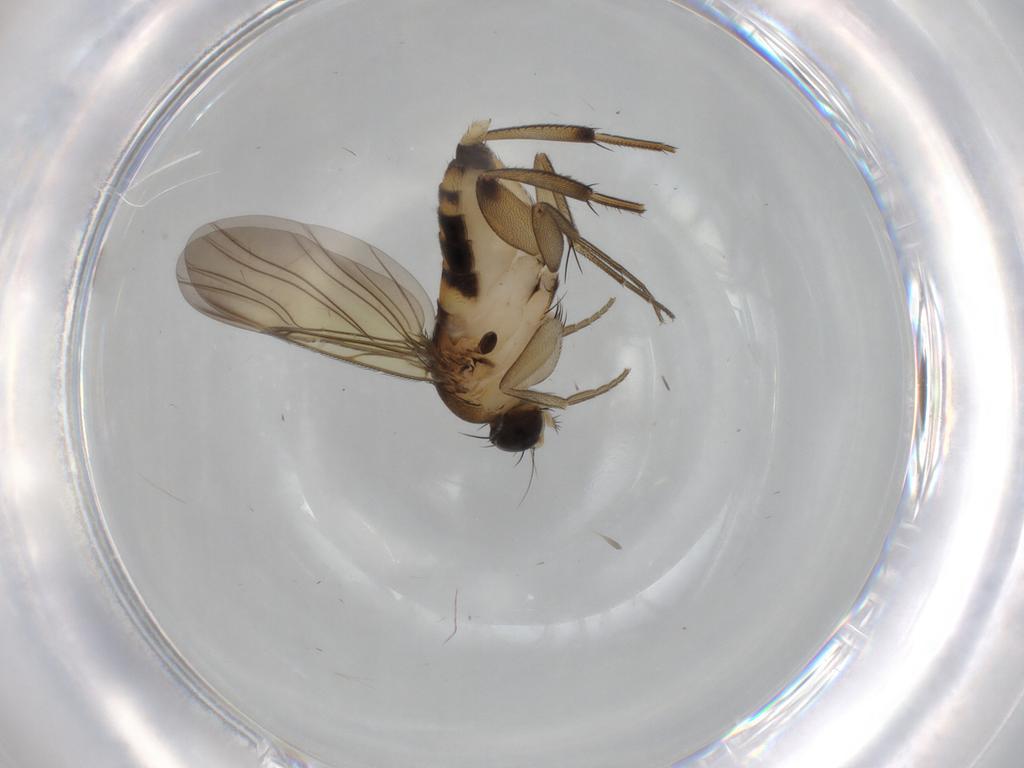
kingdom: Animalia
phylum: Arthropoda
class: Insecta
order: Diptera
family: Phoridae
